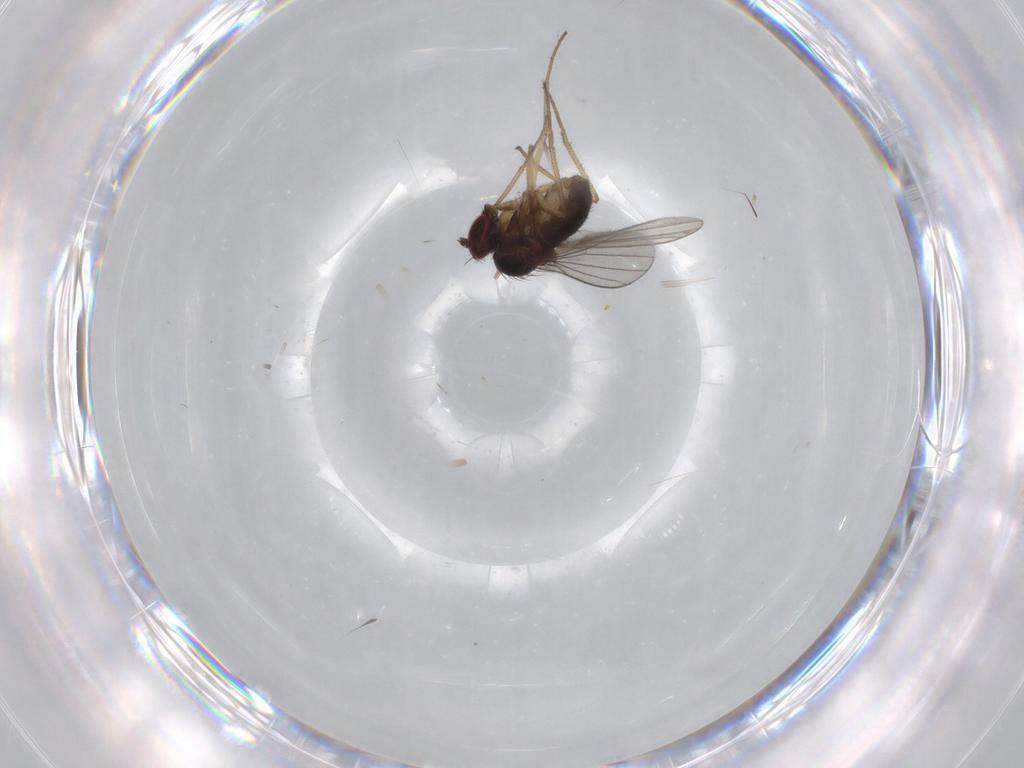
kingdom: Animalia
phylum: Arthropoda
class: Insecta
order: Diptera
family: Dolichopodidae
